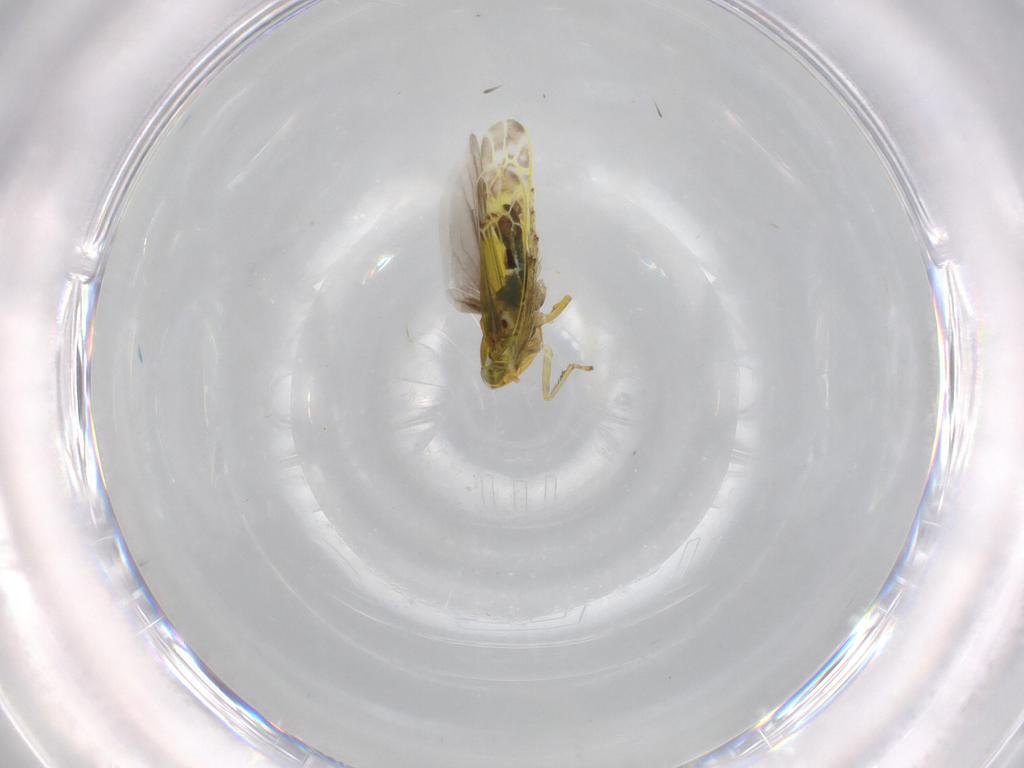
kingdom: Animalia
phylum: Arthropoda
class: Insecta
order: Hemiptera
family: Cicadellidae
